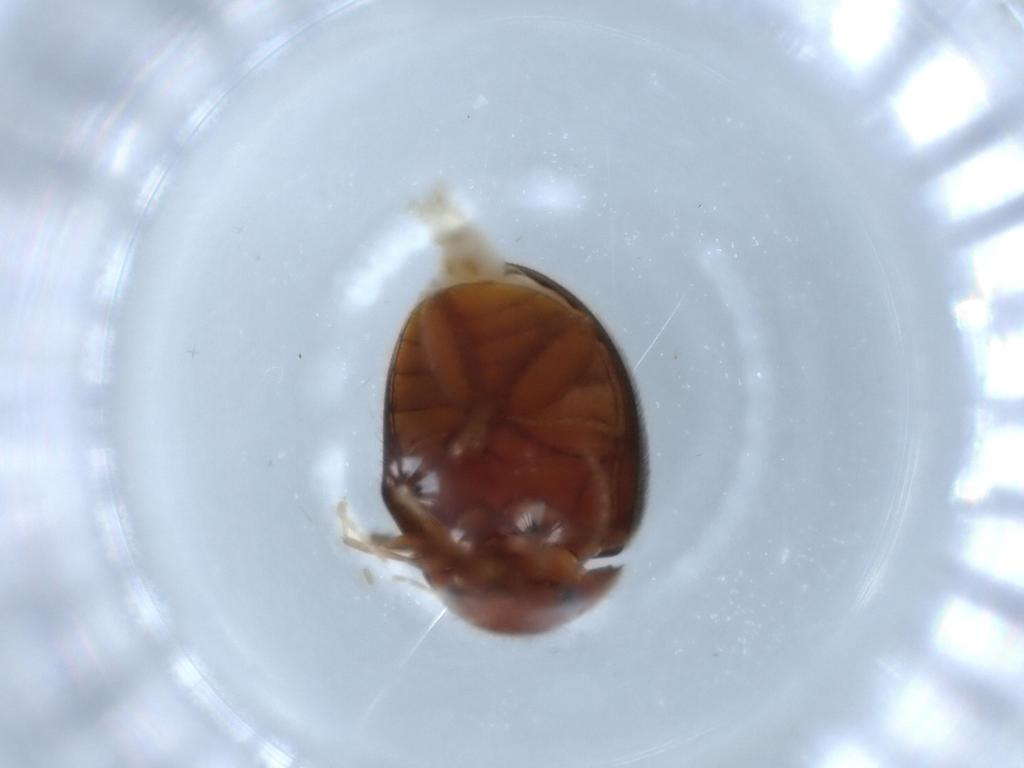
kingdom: Animalia
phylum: Arthropoda
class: Insecta
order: Coleoptera
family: Scirtidae
